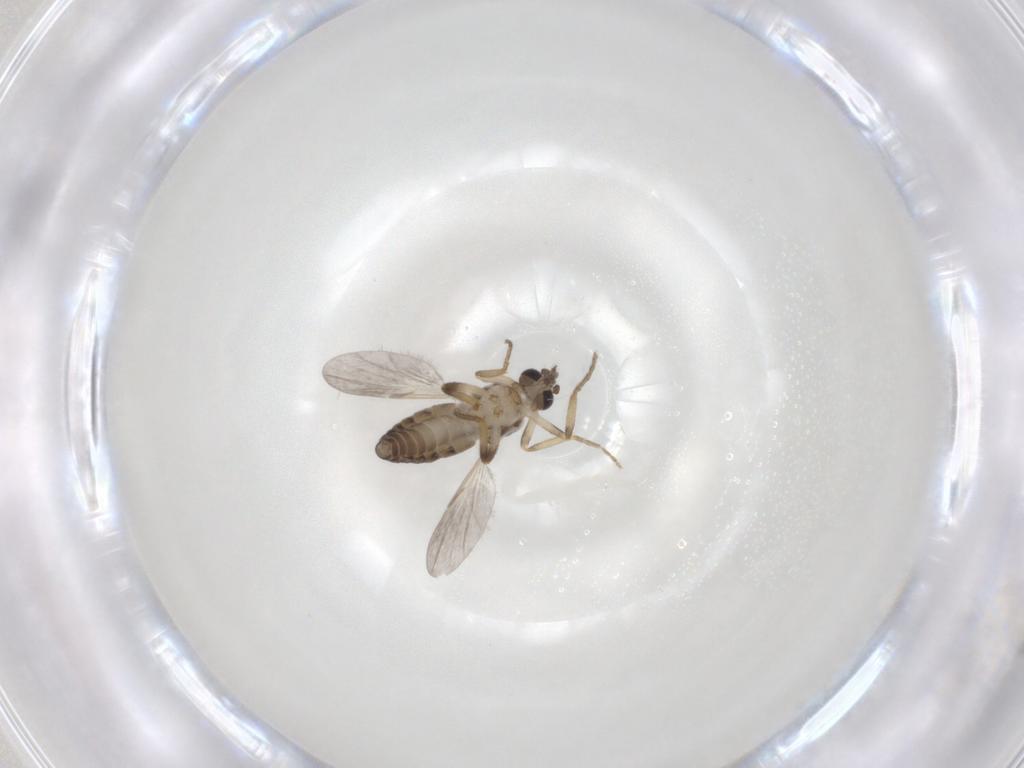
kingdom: Animalia
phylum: Arthropoda
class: Insecta
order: Diptera
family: Ceratopogonidae
